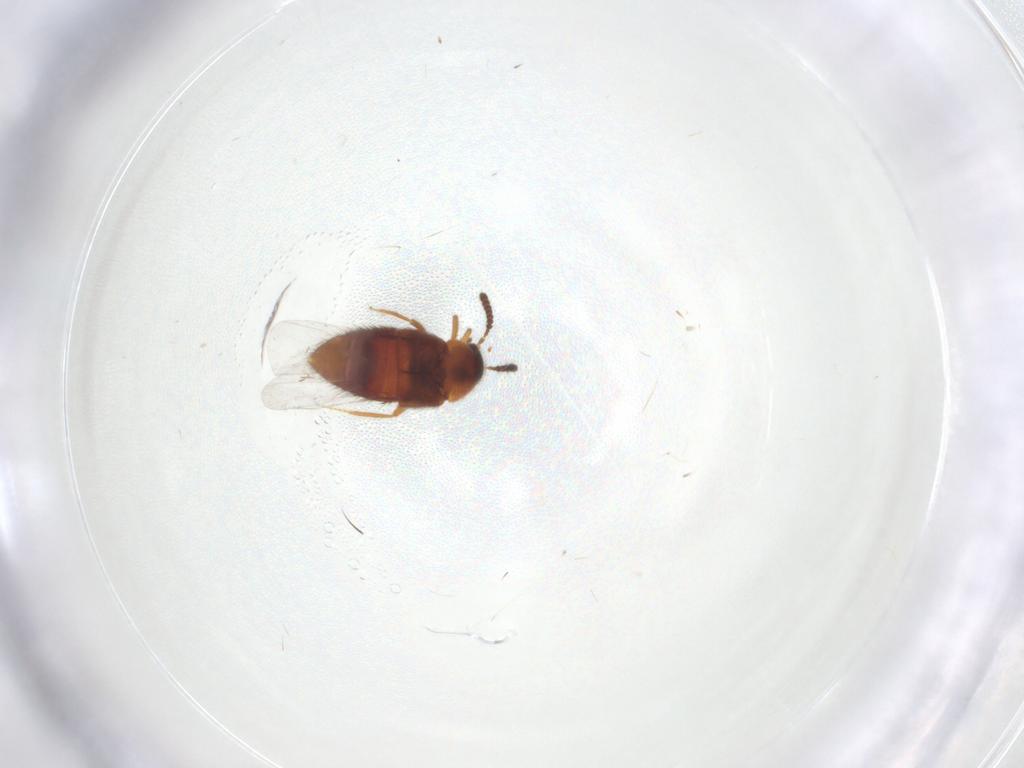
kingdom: Animalia
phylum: Arthropoda
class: Insecta
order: Coleoptera
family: Staphylinidae
